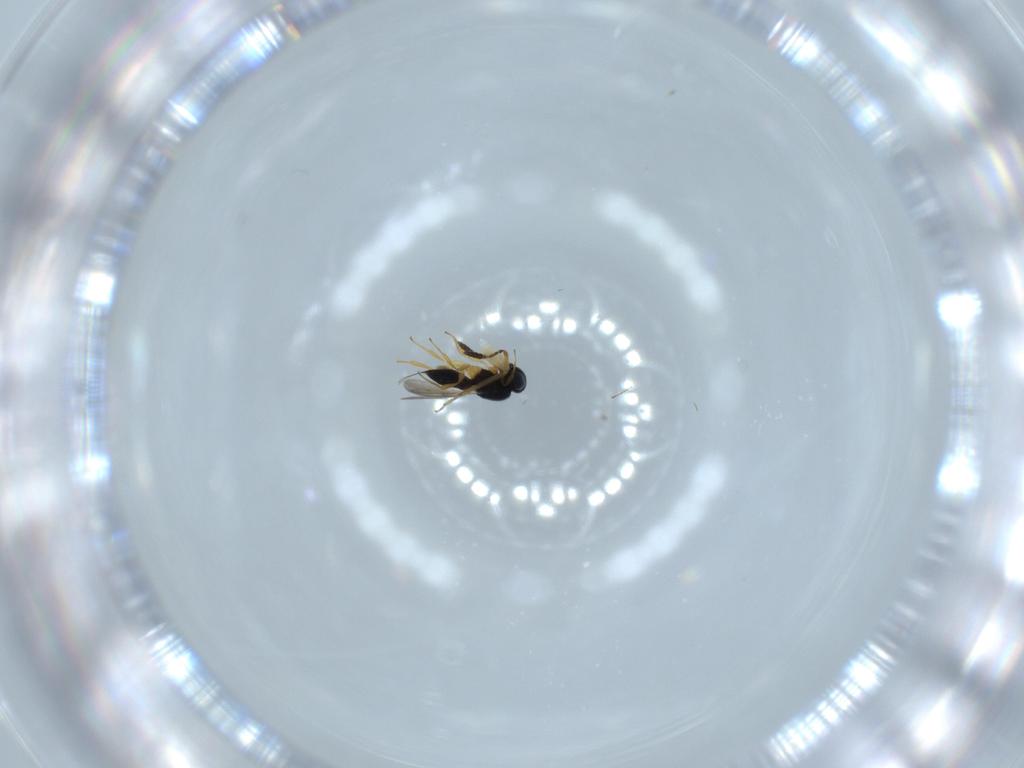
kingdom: Animalia
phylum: Arthropoda
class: Insecta
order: Hymenoptera
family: Scelionidae
